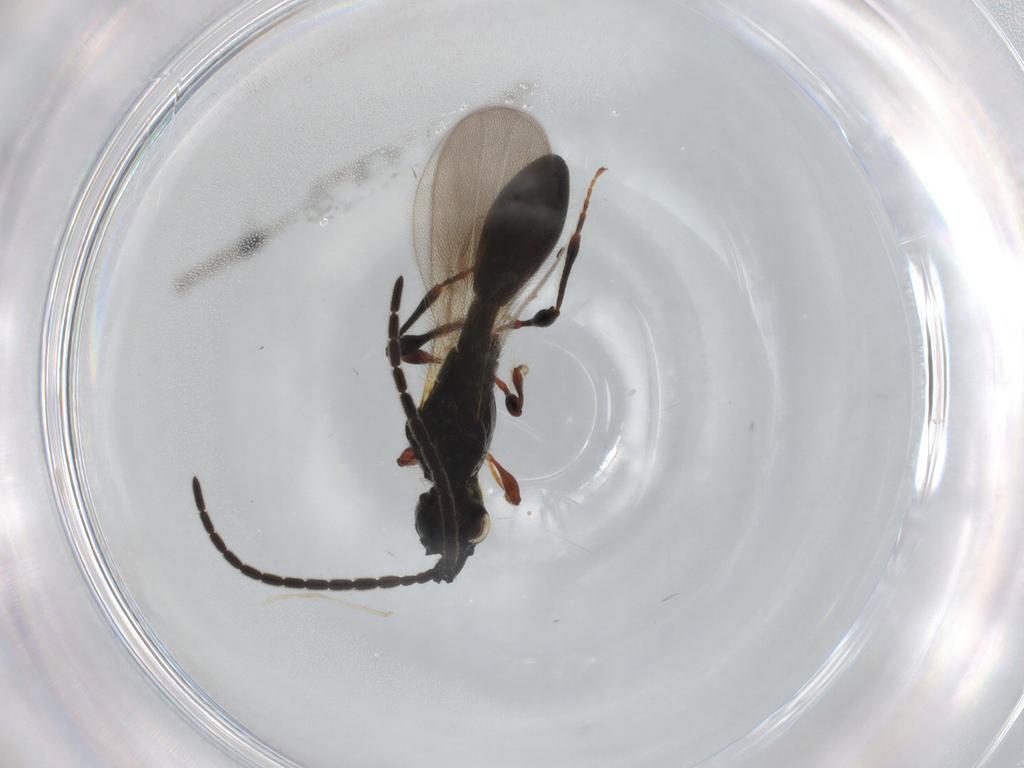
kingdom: Animalia
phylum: Arthropoda
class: Insecta
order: Hymenoptera
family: Diapriidae
